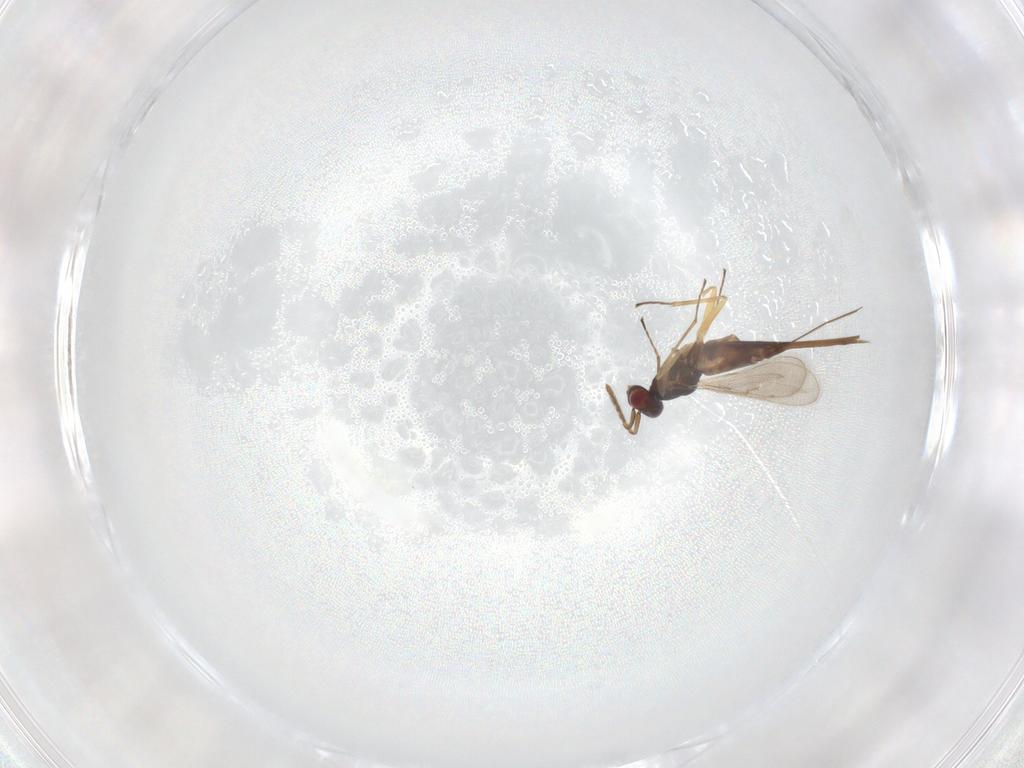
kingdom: Animalia
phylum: Arthropoda
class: Insecta
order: Hymenoptera
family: Eulophidae
